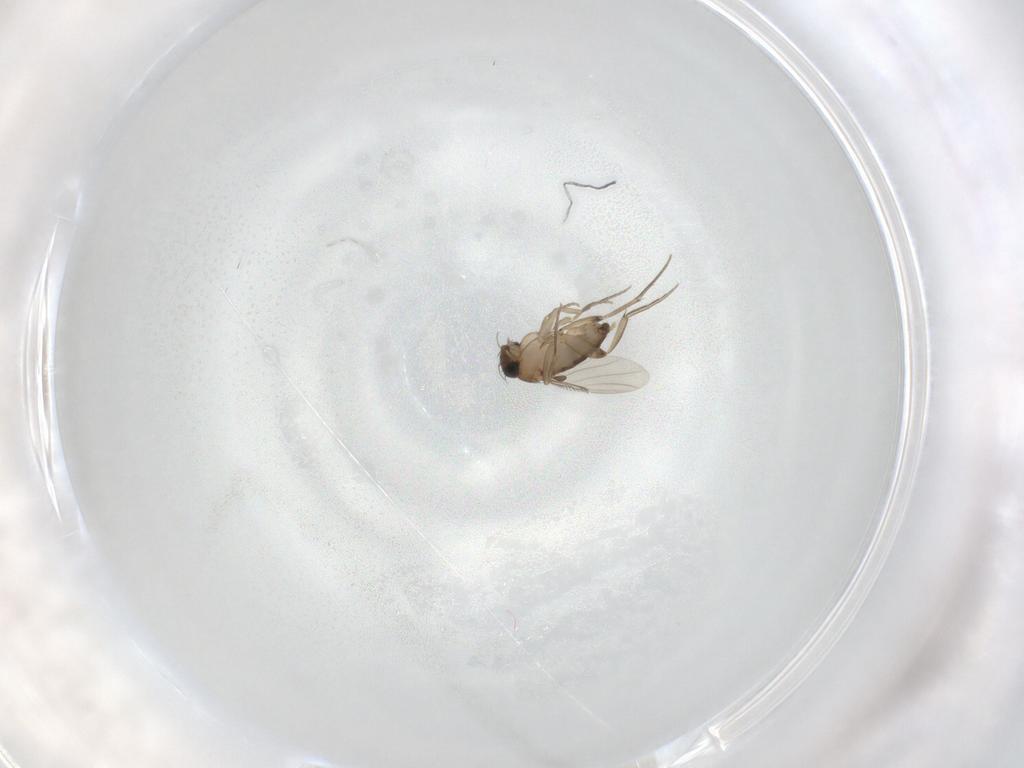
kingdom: Animalia
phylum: Arthropoda
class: Insecta
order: Diptera
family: Phoridae
